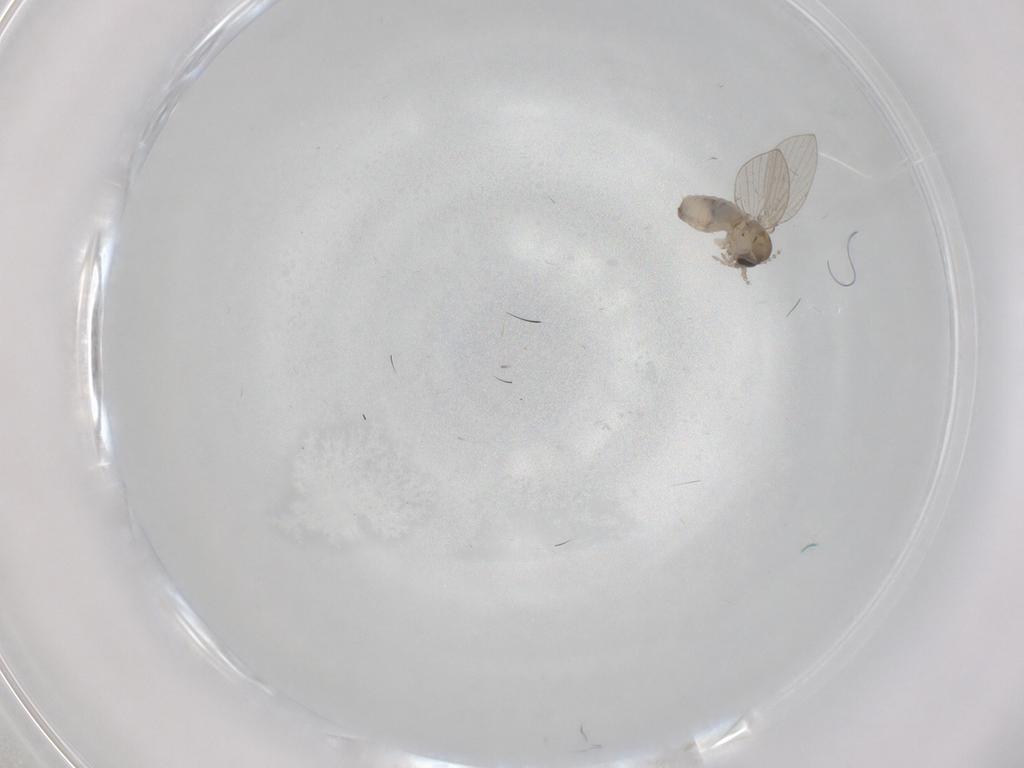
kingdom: Animalia
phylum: Arthropoda
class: Insecta
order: Diptera
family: Psychodidae
